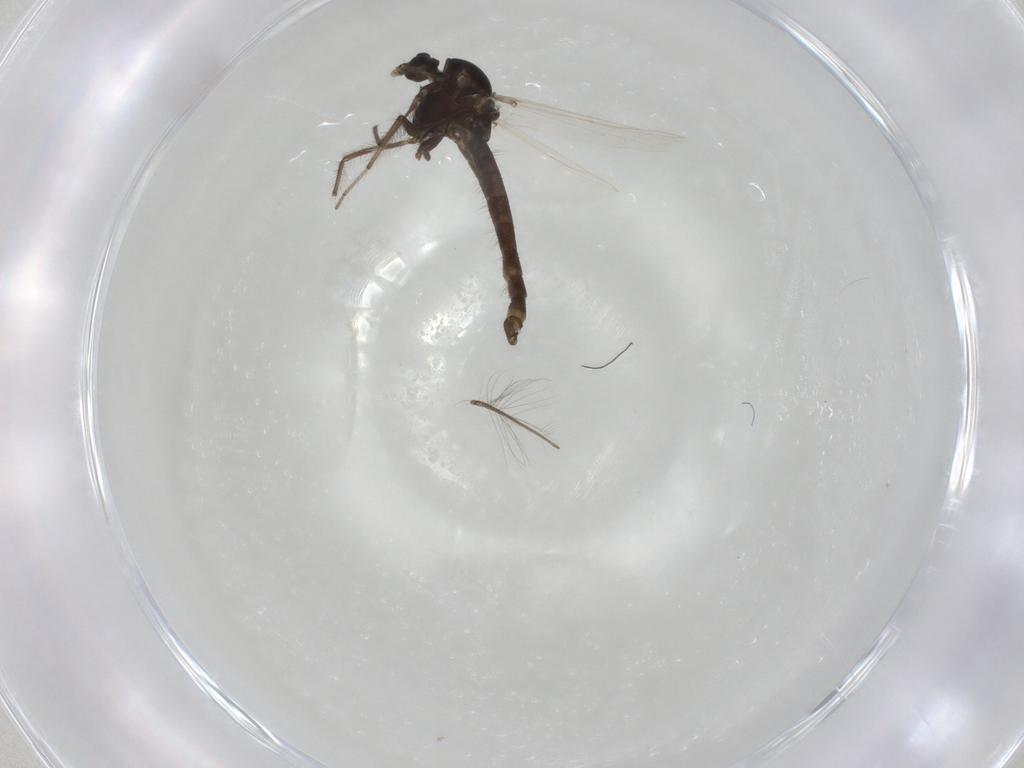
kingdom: Animalia
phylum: Arthropoda
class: Insecta
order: Diptera
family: Chironomidae
